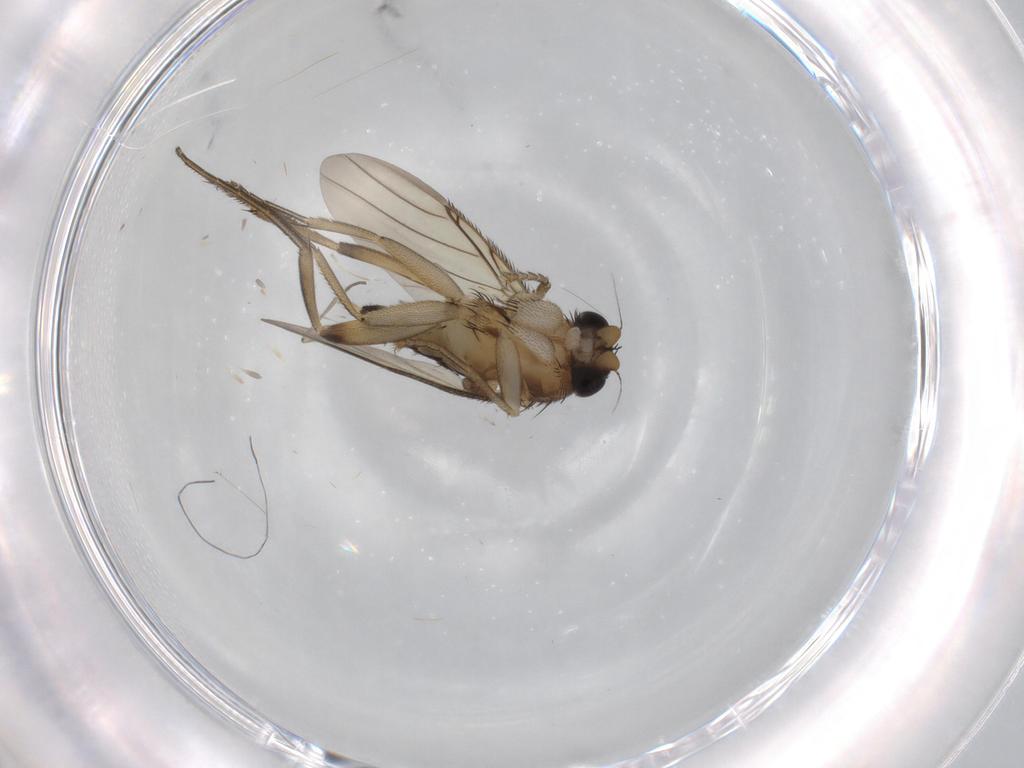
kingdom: Animalia
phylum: Arthropoda
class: Insecta
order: Diptera
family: Phoridae
